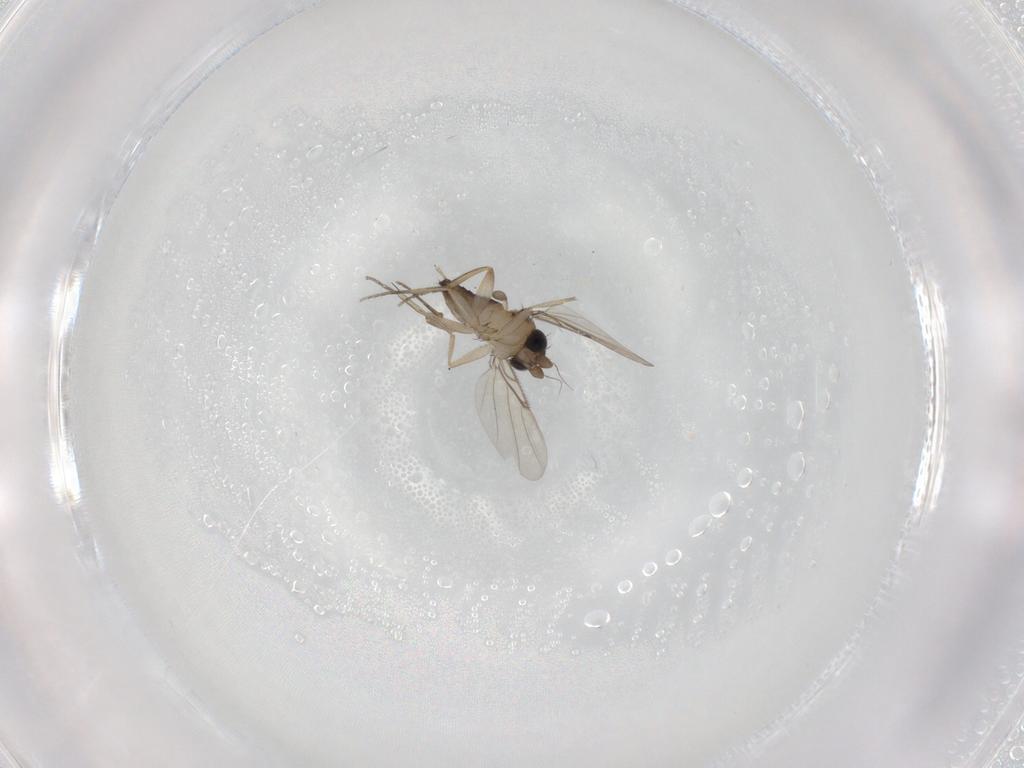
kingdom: Animalia
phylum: Arthropoda
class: Insecta
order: Diptera
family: Phoridae
